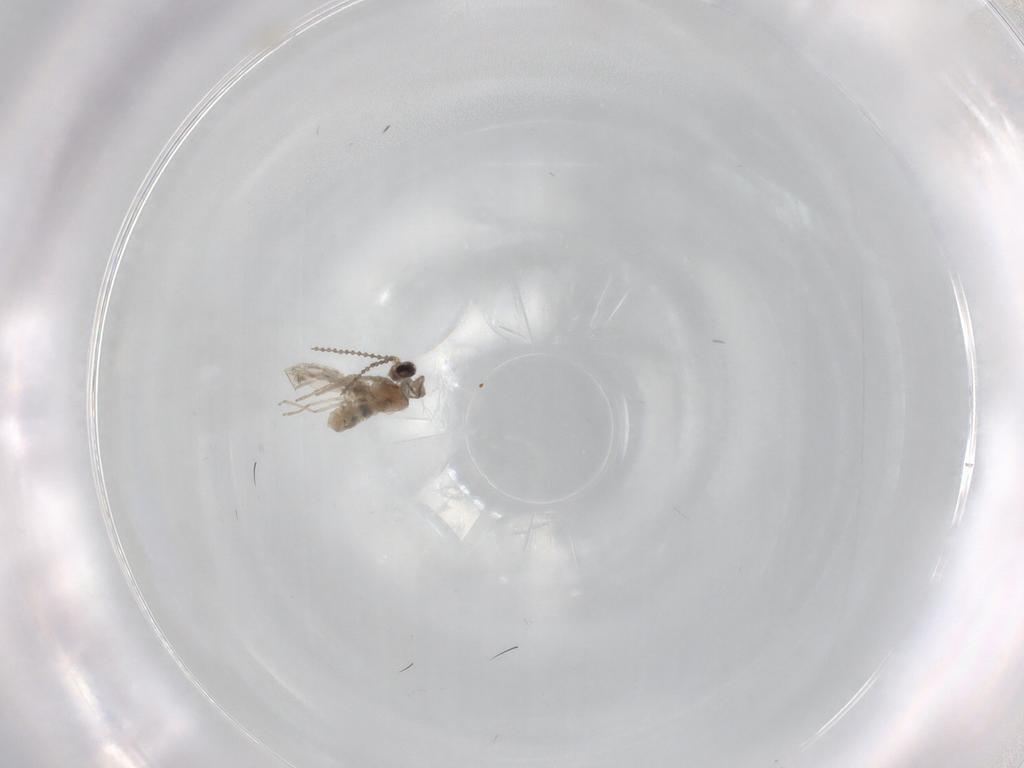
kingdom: Animalia
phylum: Arthropoda
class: Insecta
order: Diptera
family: Chironomidae
